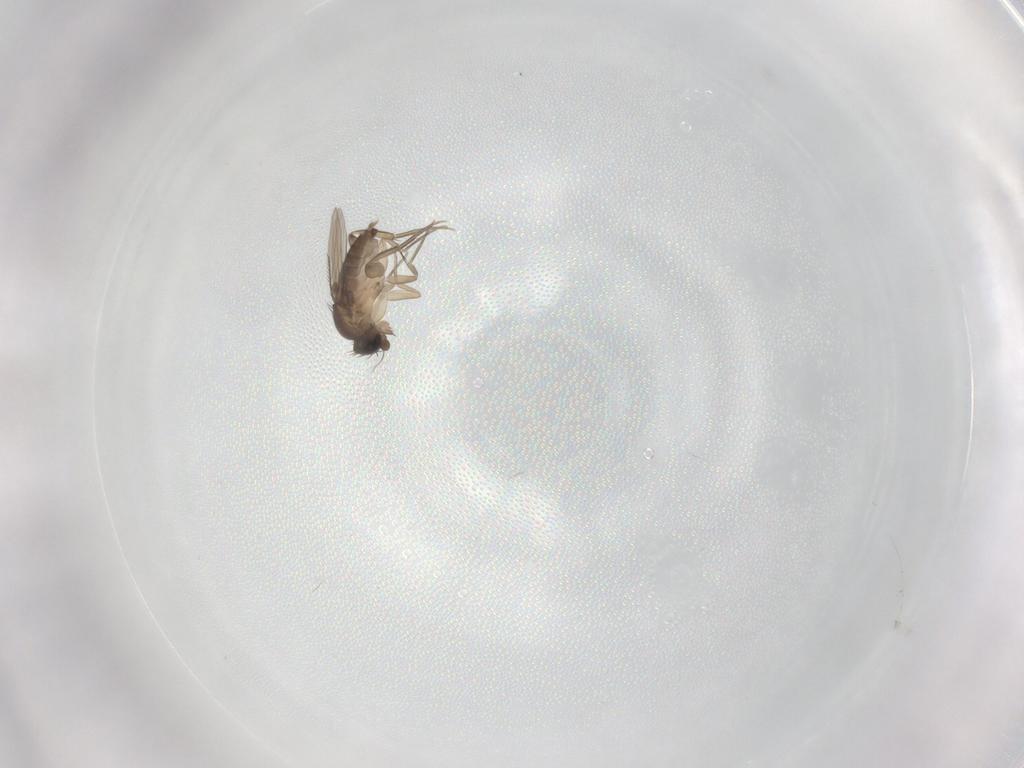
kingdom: Animalia
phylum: Arthropoda
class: Insecta
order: Diptera
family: Phoridae
